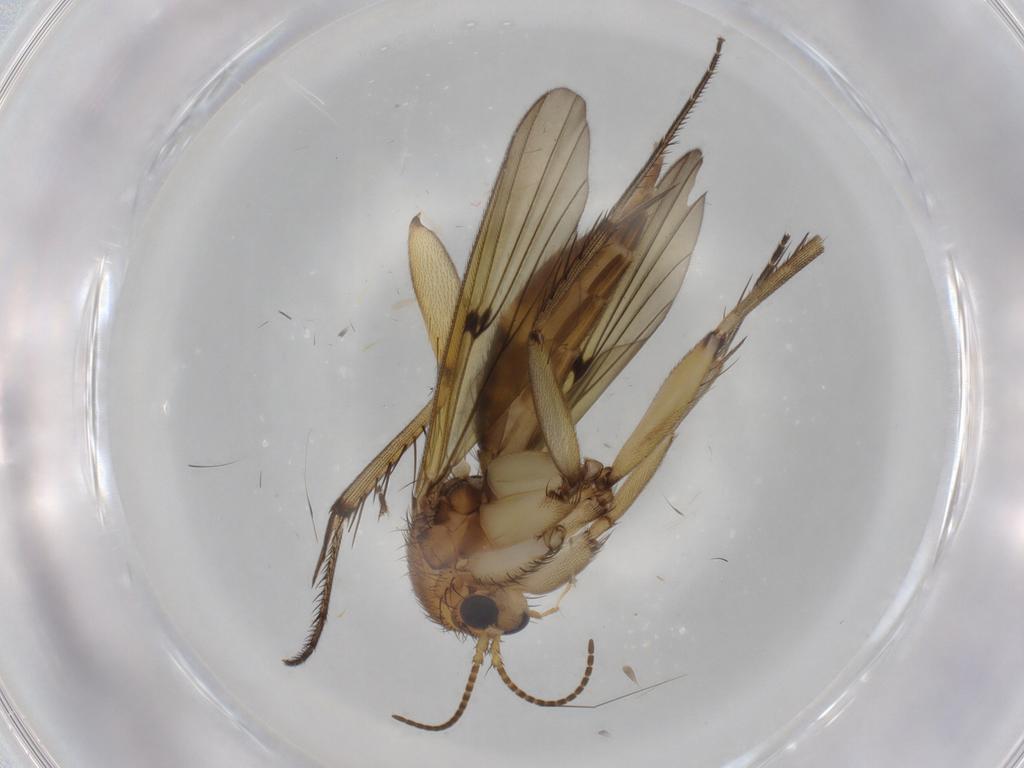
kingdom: Animalia
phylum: Arthropoda
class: Insecta
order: Diptera
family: Mycetophilidae
